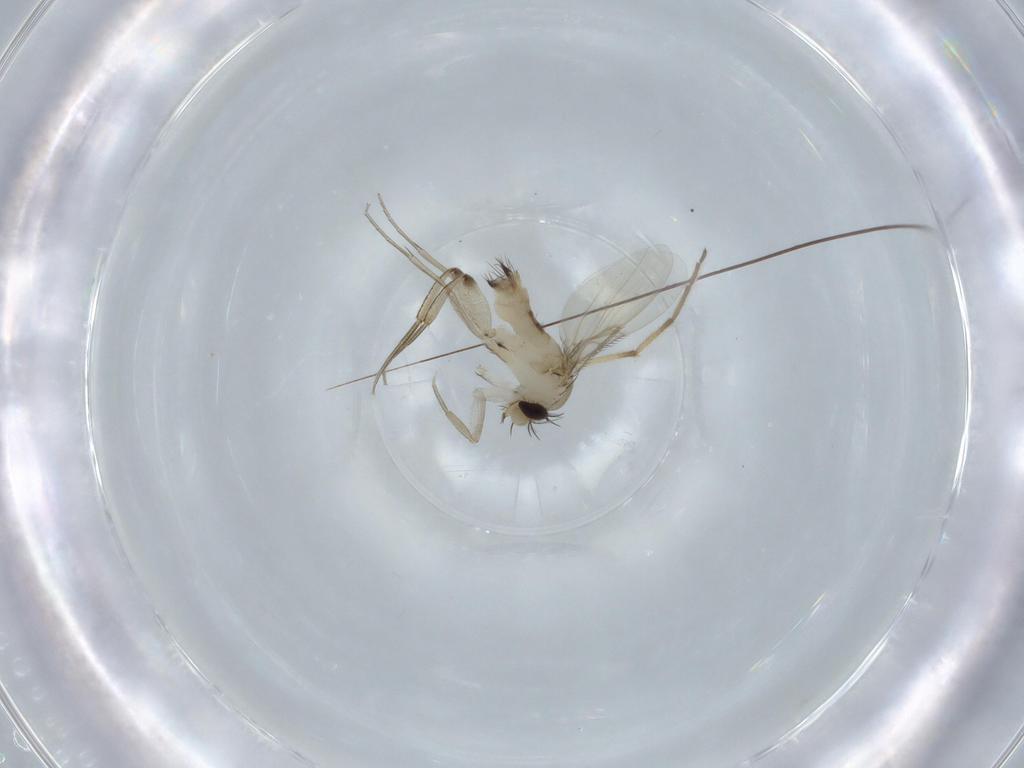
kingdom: Animalia
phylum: Arthropoda
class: Insecta
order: Diptera
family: Phoridae
